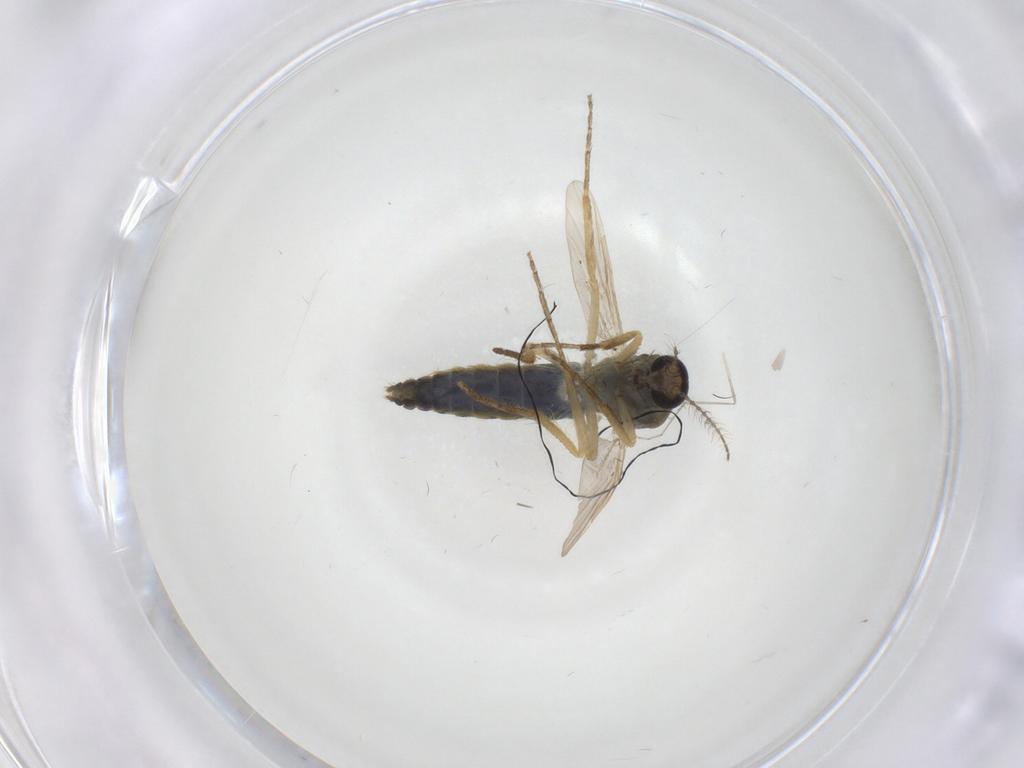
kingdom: Animalia
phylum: Arthropoda
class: Insecta
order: Diptera
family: Ceratopogonidae
